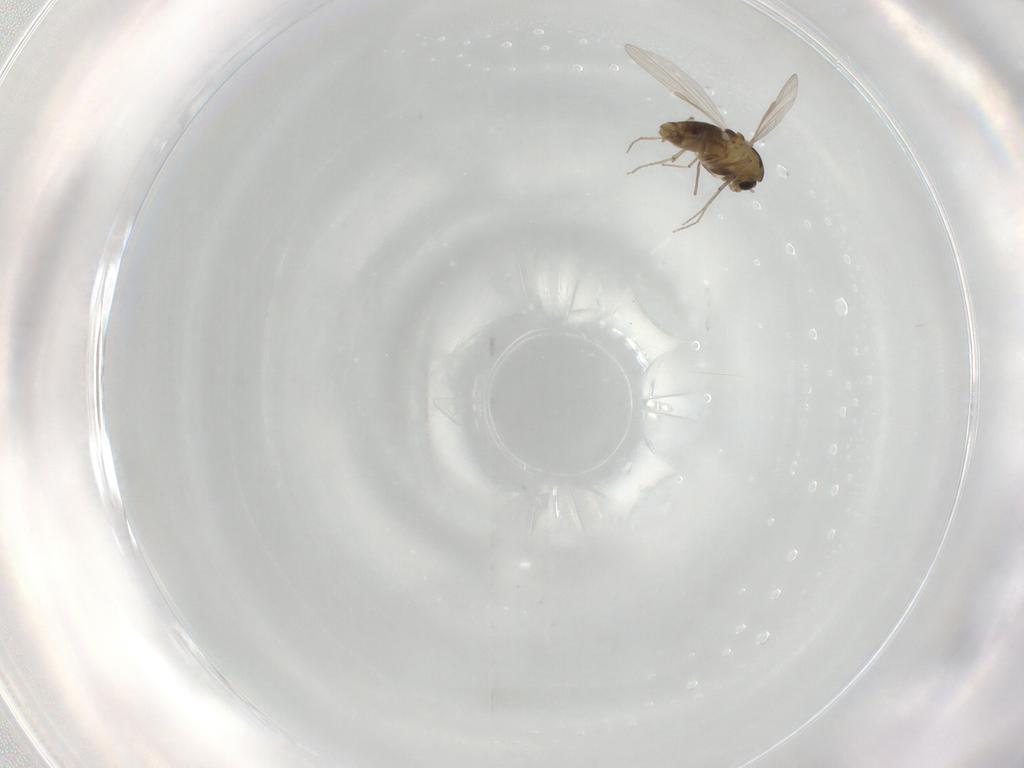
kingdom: Animalia
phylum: Arthropoda
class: Insecta
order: Diptera
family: Chironomidae
